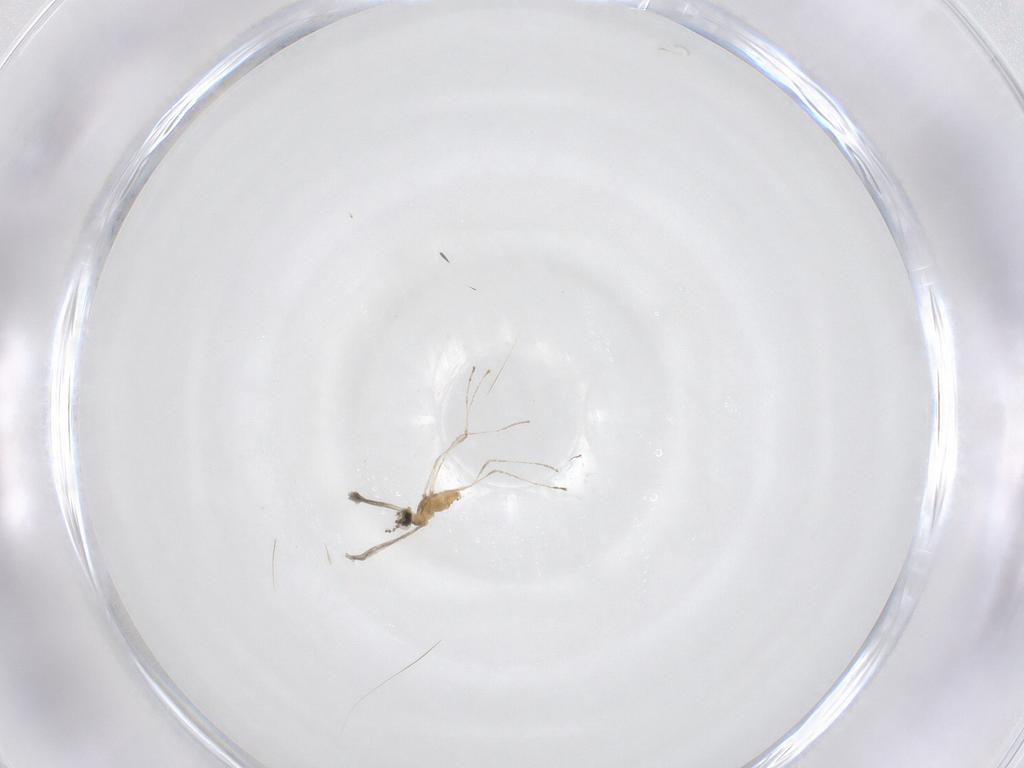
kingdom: Animalia
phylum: Arthropoda
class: Insecta
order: Diptera
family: Cecidomyiidae
